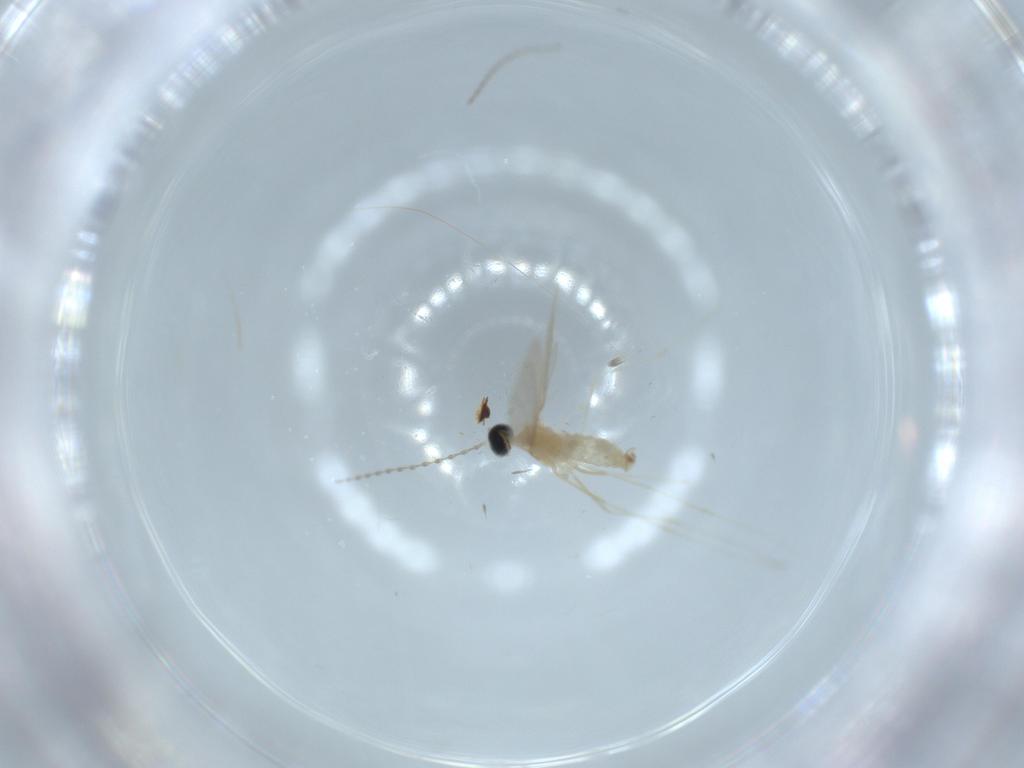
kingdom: Animalia
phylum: Arthropoda
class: Insecta
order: Diptera
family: Cecidomyiidae
